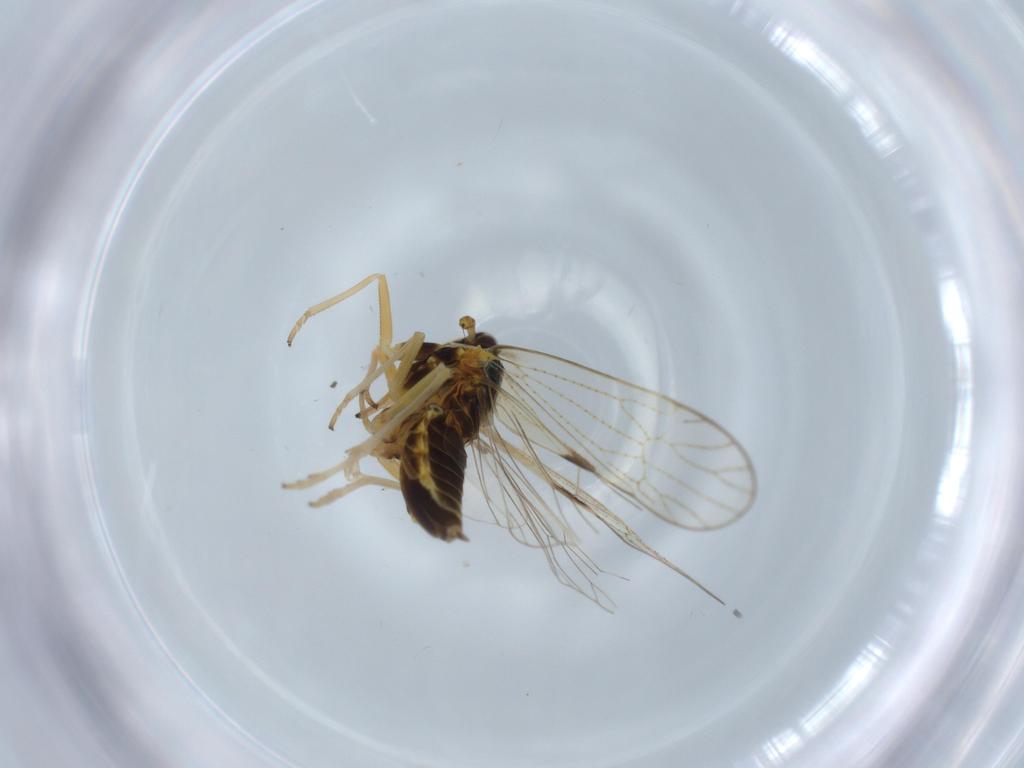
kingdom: Animalia
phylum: Arthropoda
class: Insecta
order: Hemiptera
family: Cicadellidae
